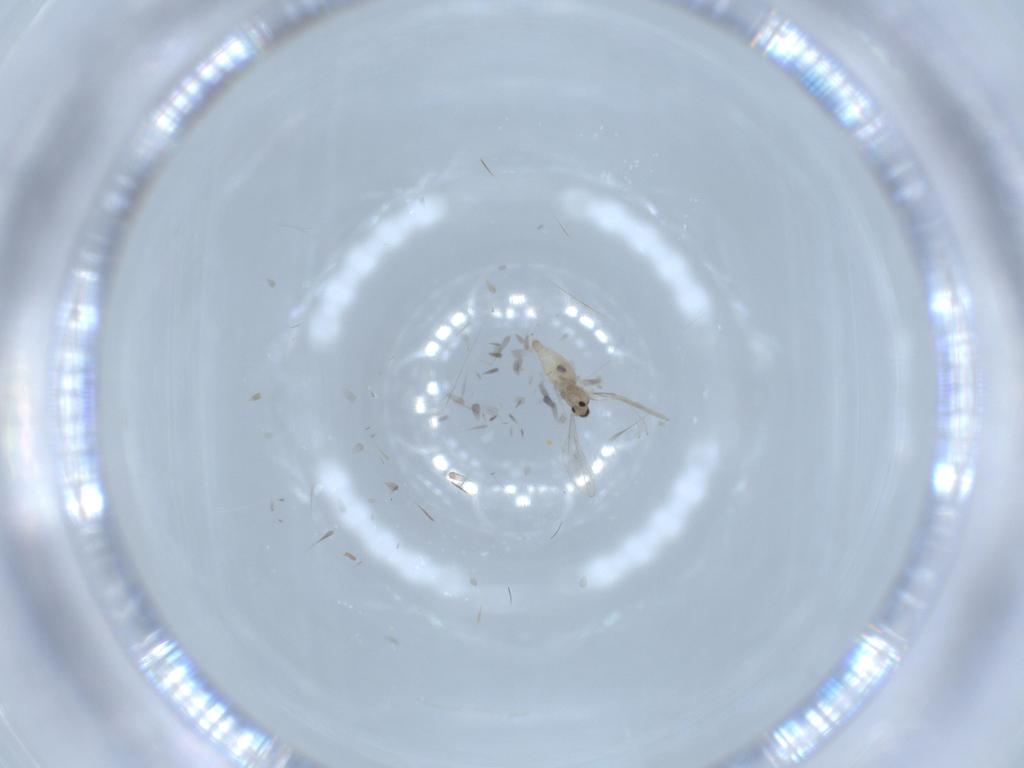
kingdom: Animalia
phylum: Arthropoda
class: Insecta
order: Diptera
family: Cecidomyiidae
